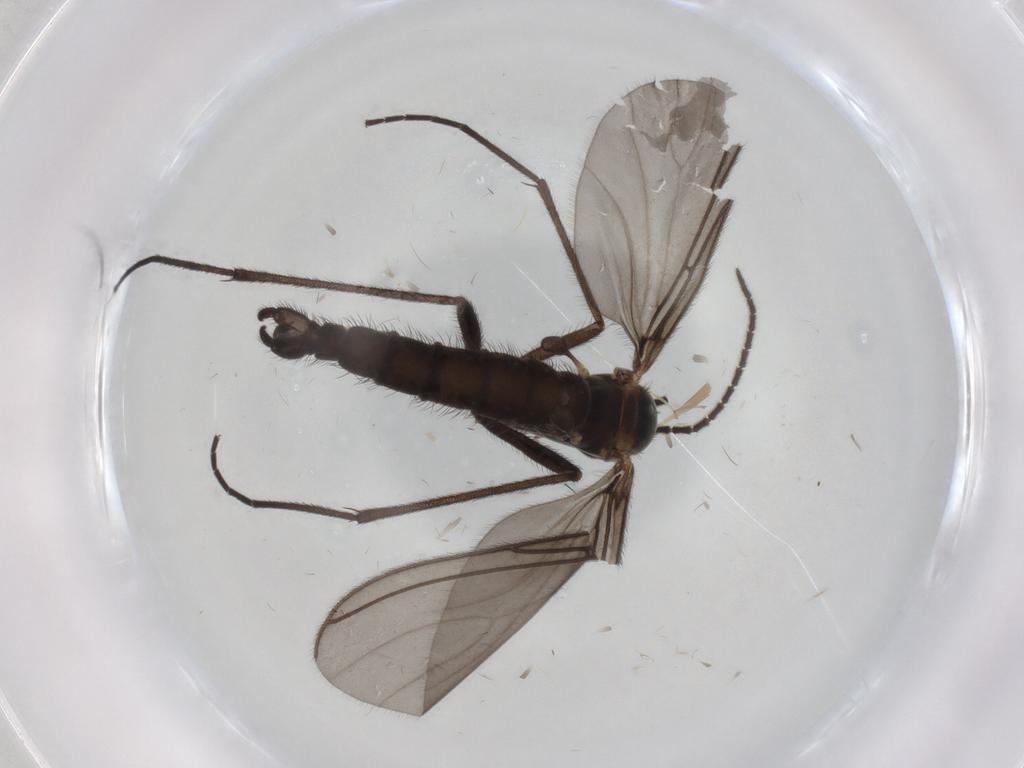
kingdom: Animalia
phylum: Arthropoda
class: Insecta
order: Diptera
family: Sciaridae
